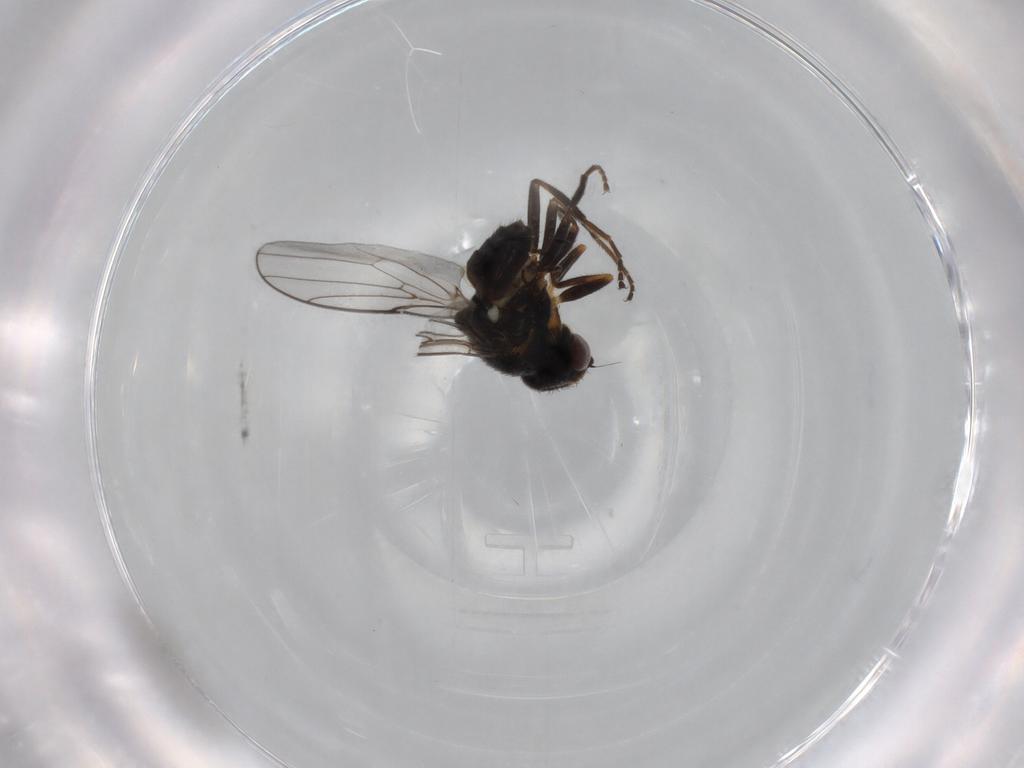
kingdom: Animalia
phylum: Arthropoda
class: Insecta
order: Diptera
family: Chloropidae
